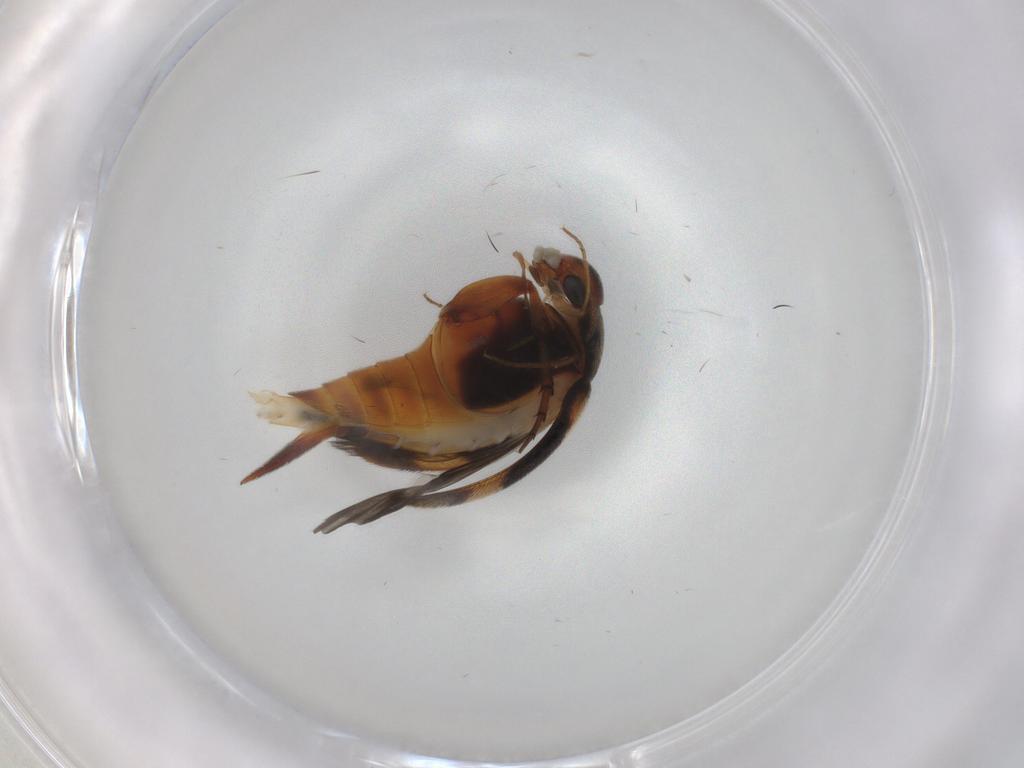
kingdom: Animalia
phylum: Arthropoda
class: Insecta
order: Coleoptera
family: Mordellidae
